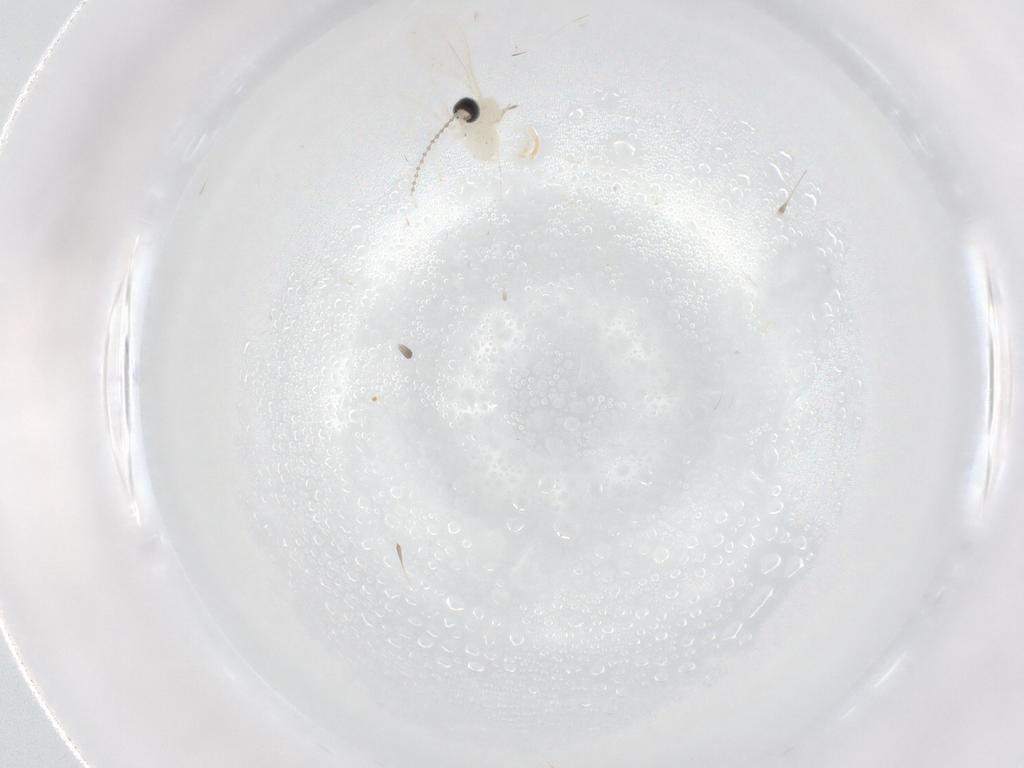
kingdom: Animalia
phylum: Arthropoda
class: Insecta
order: Diptera
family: Cecidomyiidae
